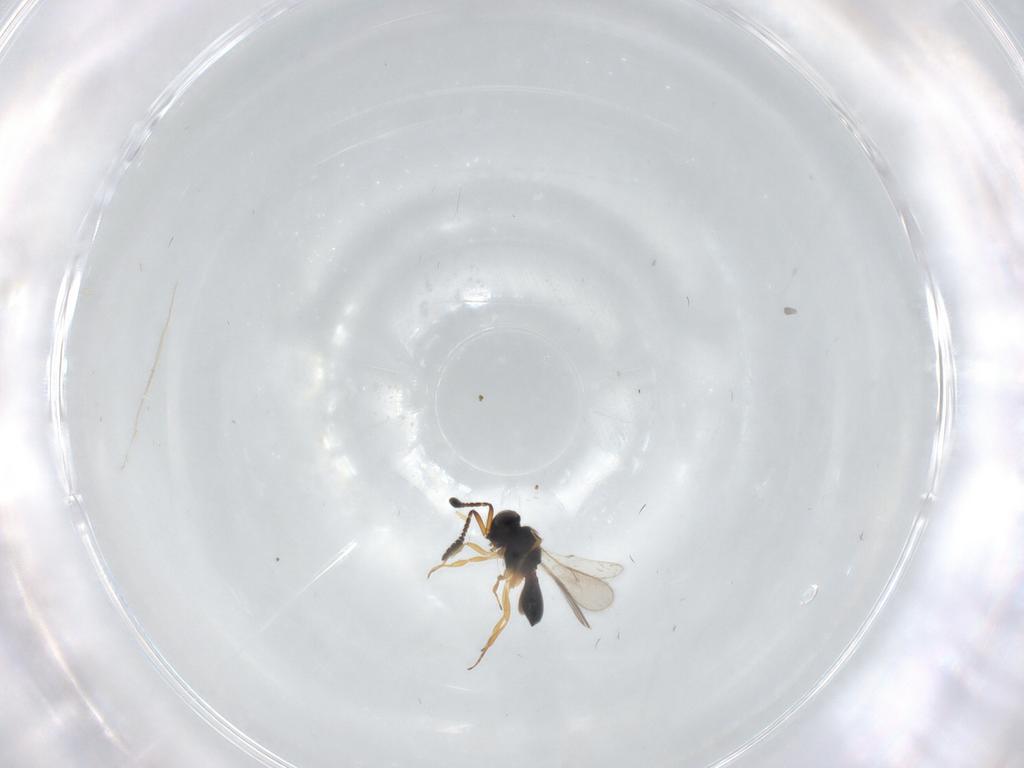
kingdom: Animalia
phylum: Arthropoda
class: Insecta
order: Hymenoptera
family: Scelionidae
